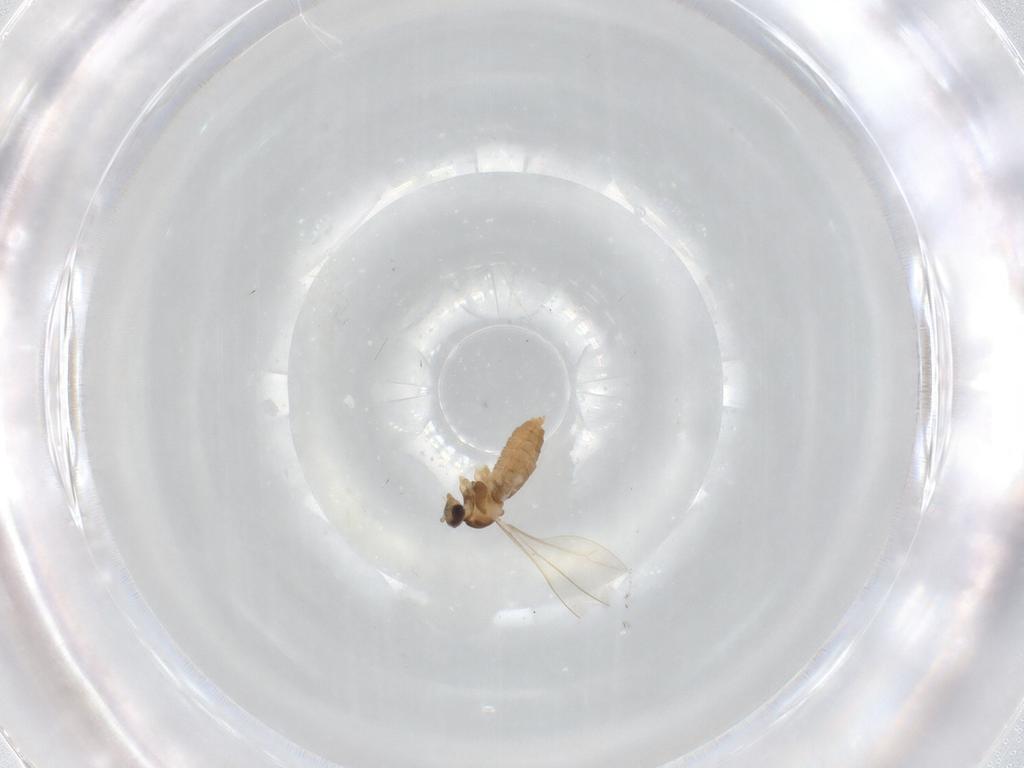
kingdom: Animalia
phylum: Arthropoda
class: Insecta
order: Diptera
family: Cecidomyiidae
